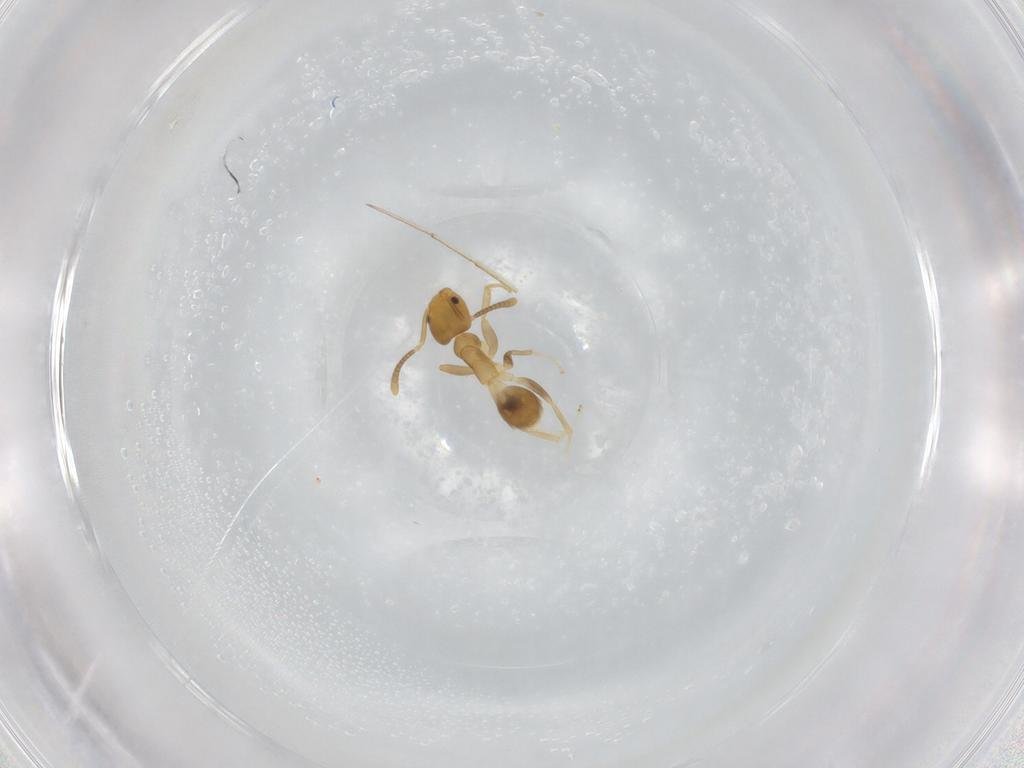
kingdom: Animalia
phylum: Arthropoda
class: Insecta
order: Hymenoptera
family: Formicidae
